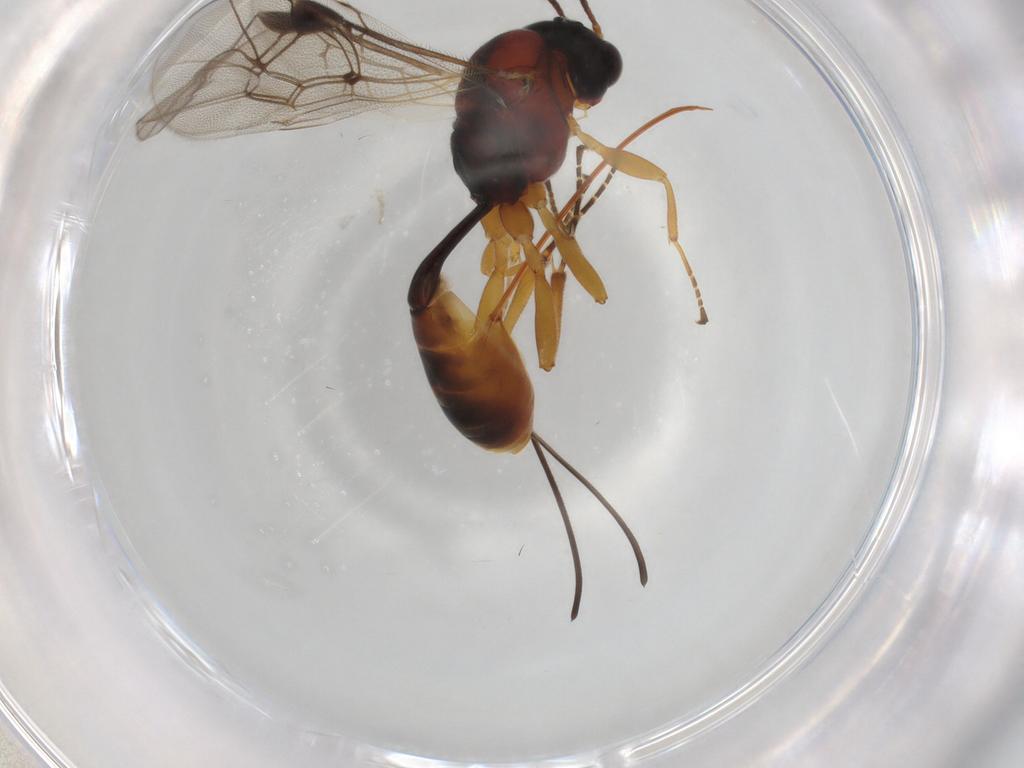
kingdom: Animalia
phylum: Arthropoda
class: Insecta
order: Hymenoptera
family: Ichneumonidae
